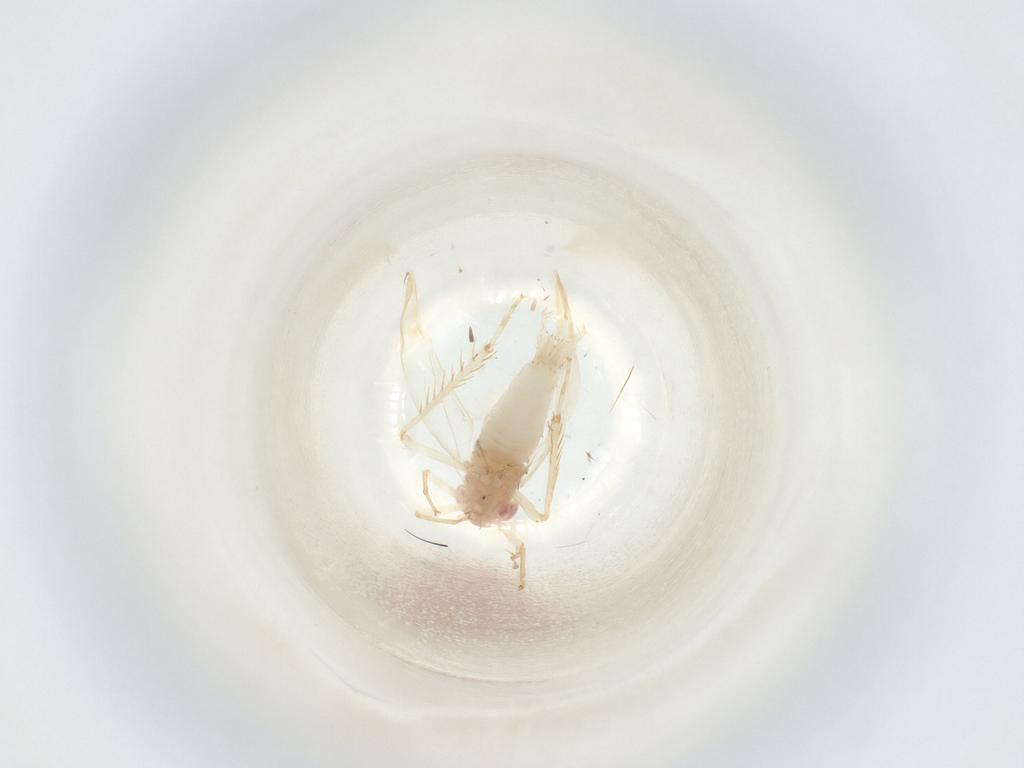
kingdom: Animalia
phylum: Arthropoda
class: Insecta
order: Hemiptera
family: Cicadellidae
